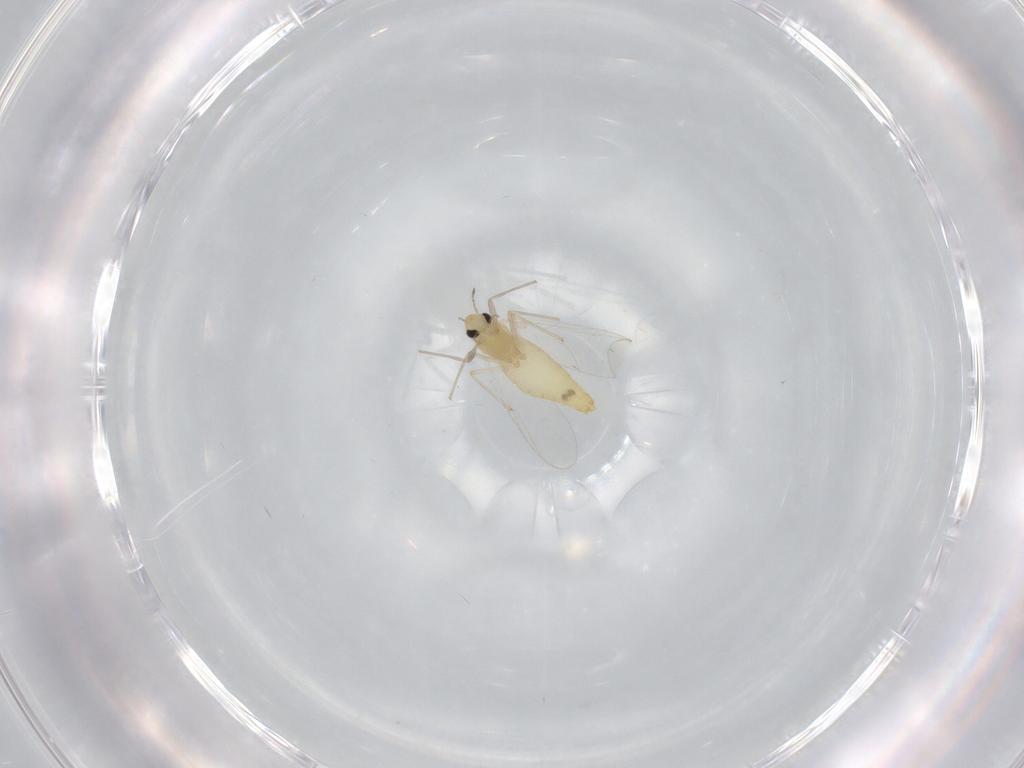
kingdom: Animalia
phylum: Arthropoda
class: Insecta
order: Diptera
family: Chironomidae
